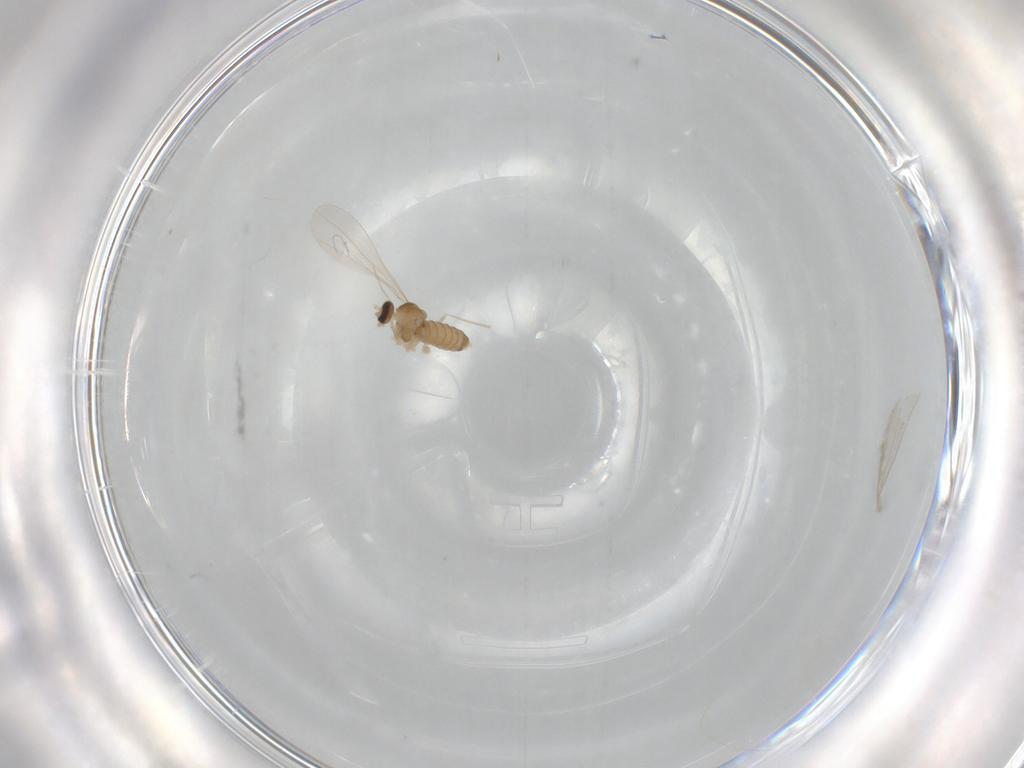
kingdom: Animalia
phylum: Arthropoda
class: Insecta
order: Diptera
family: Cecidomyiidae
